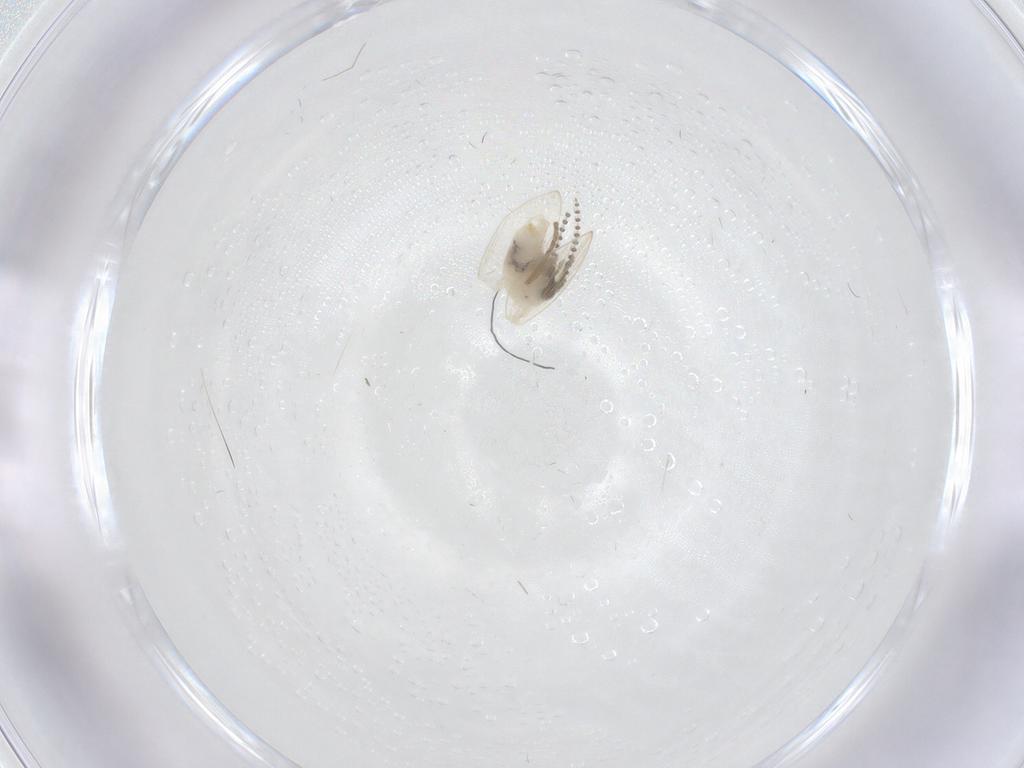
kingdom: Animalia
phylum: Arthropoda
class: Insecta
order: Diptera
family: Psychodidae
